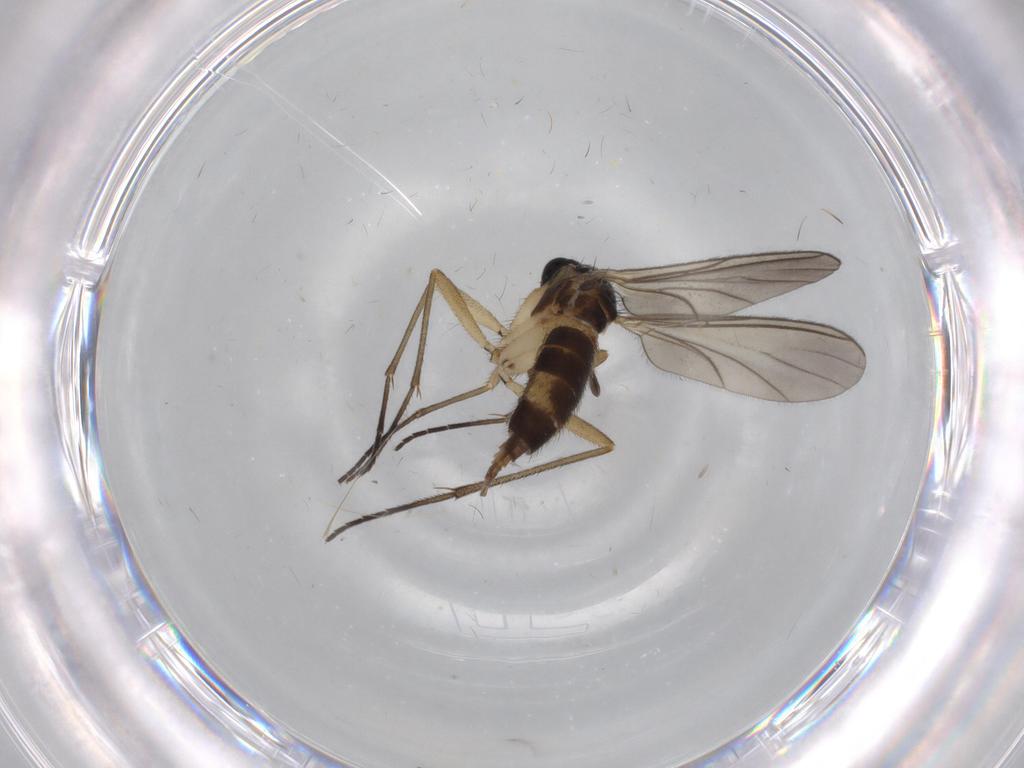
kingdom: Animalia
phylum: Arthropoda
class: Insecta
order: Diptera
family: Sciaridae
